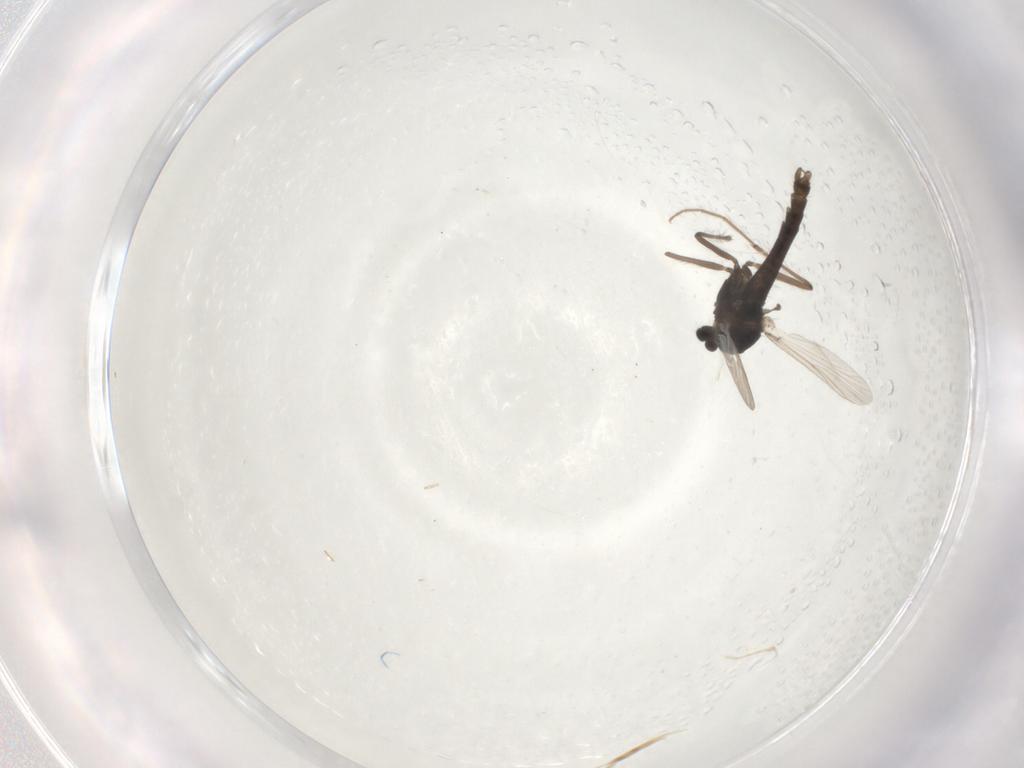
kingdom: Animalia
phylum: Arthropoda
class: Insecta
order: Diptera
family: Chironomidae
